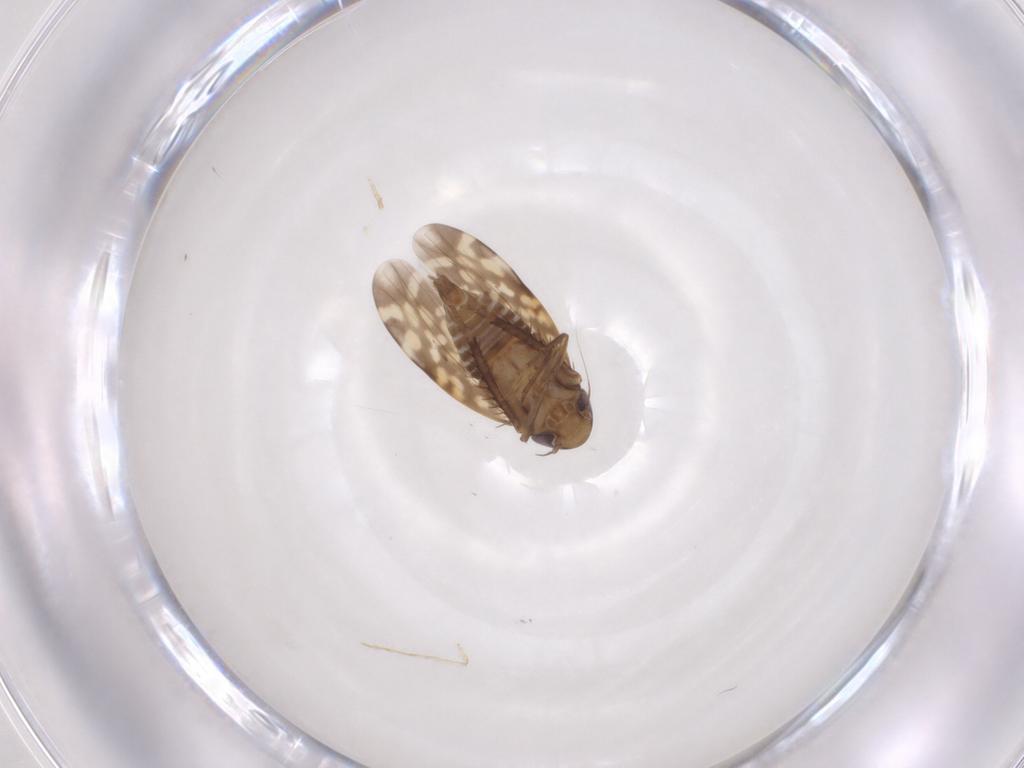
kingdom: Animalia
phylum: Arthropoda
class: Insecta
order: Hemiptera
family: Cicadellidae
